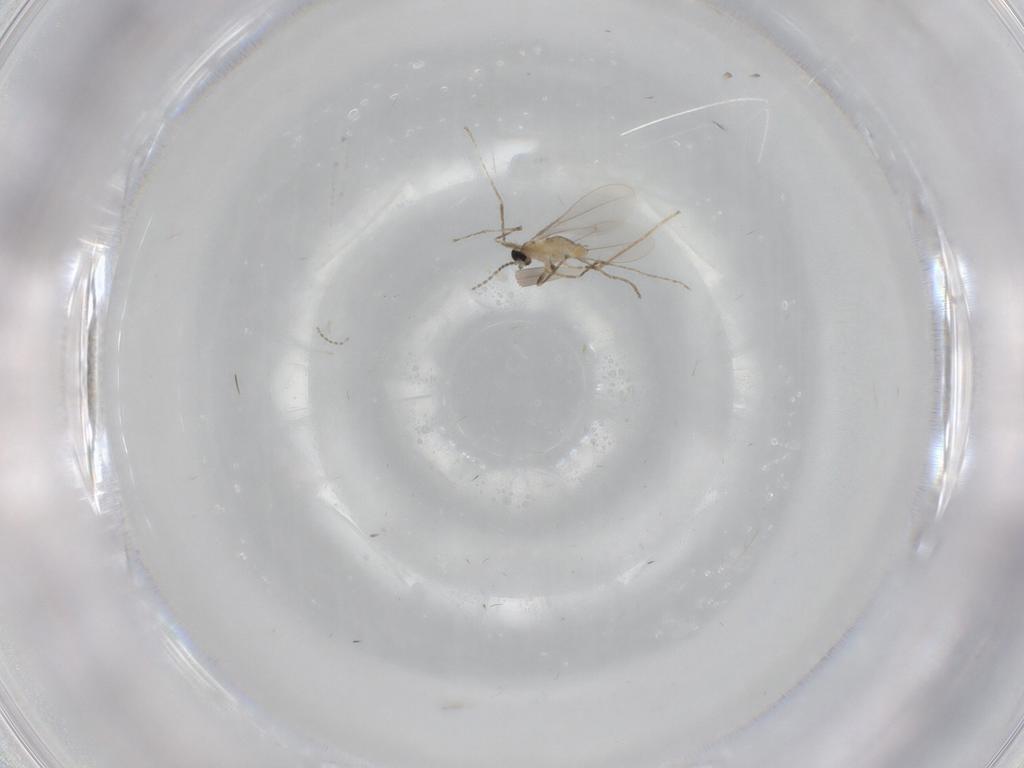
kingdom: Animalia
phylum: Arthropoda
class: Insecta
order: Diptera
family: Cecidomyiidae
